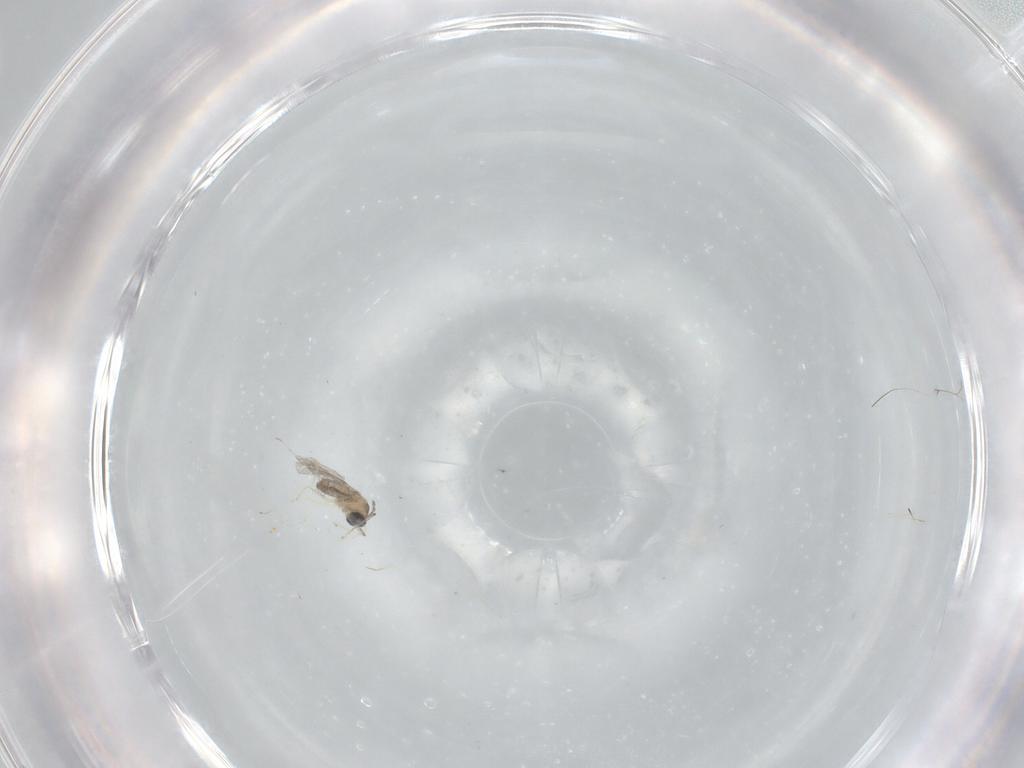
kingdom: Animalia
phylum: Arthropoda
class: Insecta
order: Diptera
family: Cecidomyiidae
